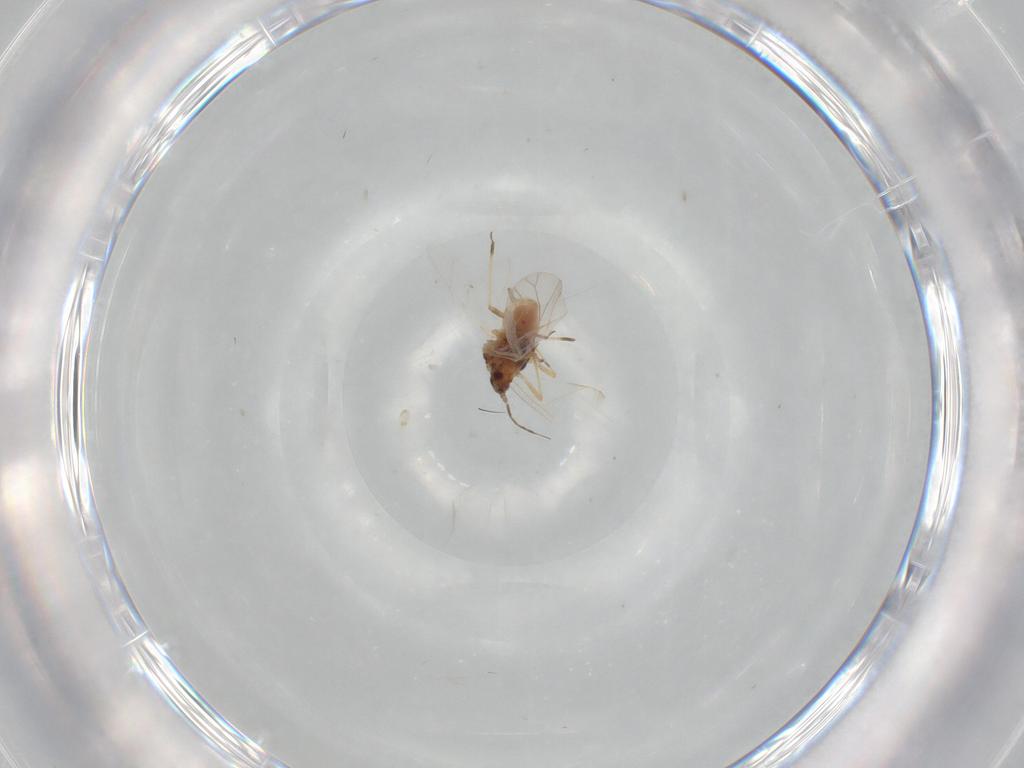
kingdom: Animalia
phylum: Arthropoda
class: Insecta
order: Hemiptera
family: Aphididae
